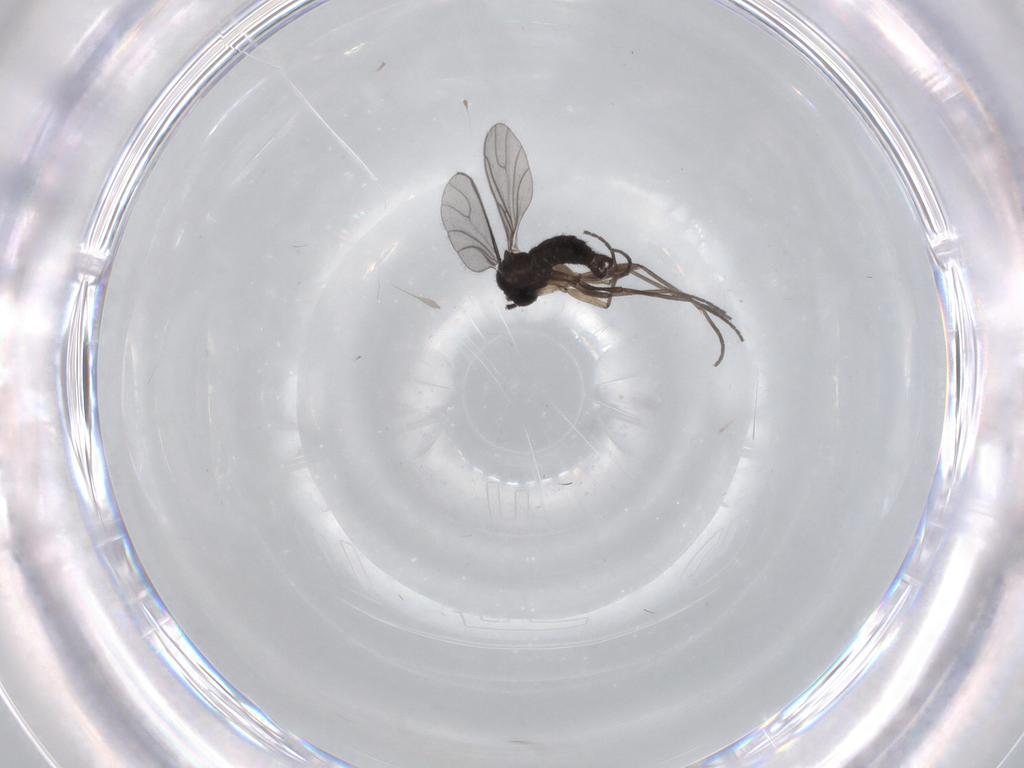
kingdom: Animalia
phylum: Arthropoda
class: Insecta
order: Diptera
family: Sciaridae
